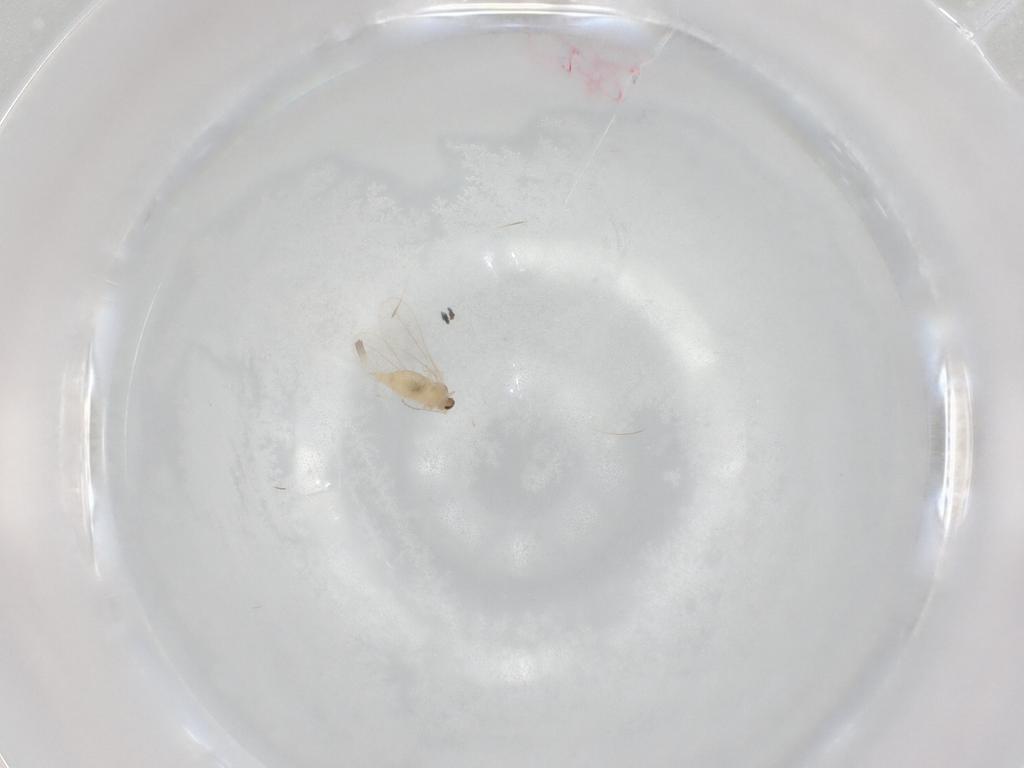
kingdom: Animalia
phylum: Arthropoda
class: Insecta
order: Diptera
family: Cecidomyiidae
